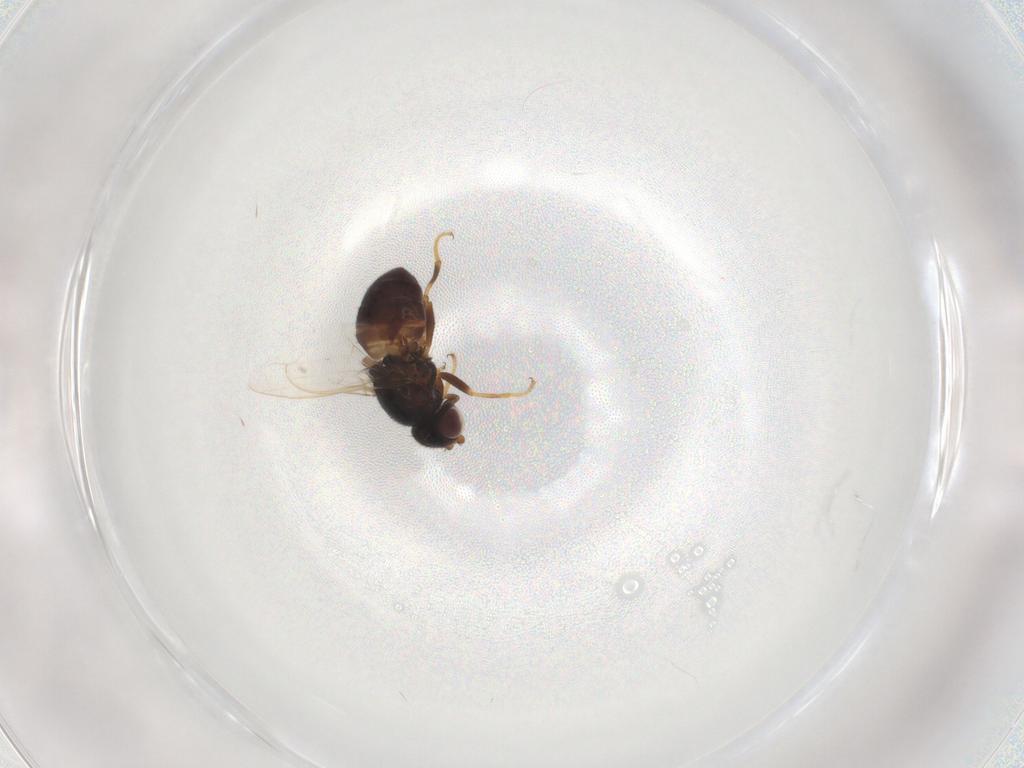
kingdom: Animalia
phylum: Arthropoda
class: Insecta
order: Diptera
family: Chloropidae
